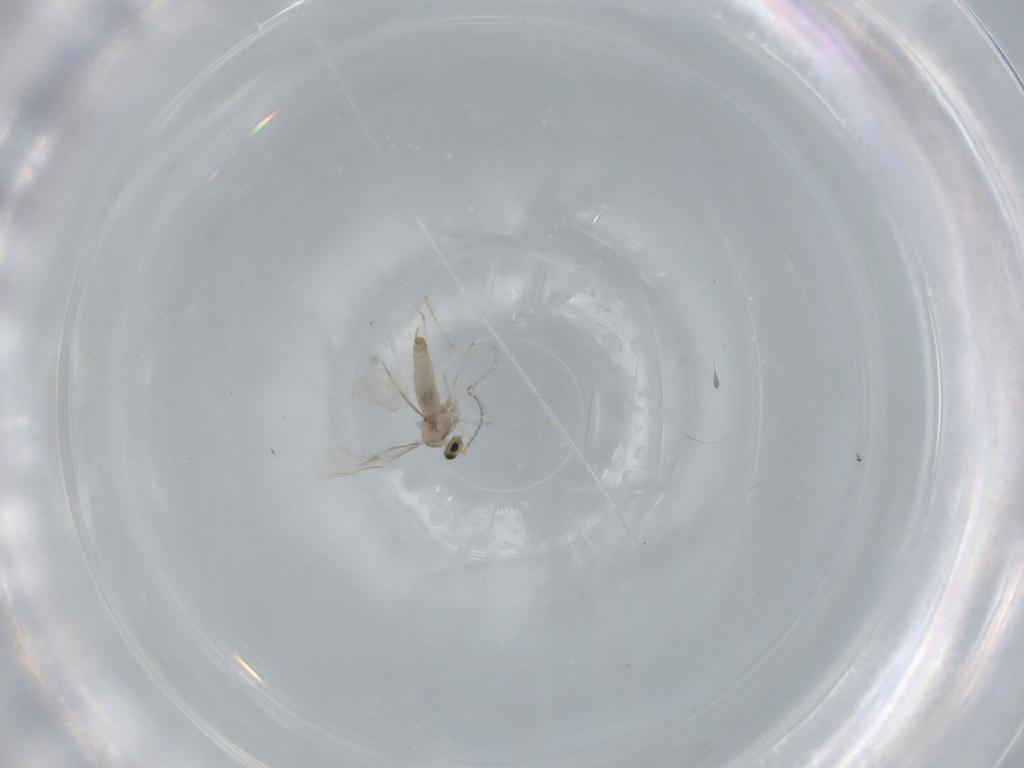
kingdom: Animalia
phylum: Arthropoda
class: Insecta
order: Diptera
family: Cecidomyiidae
